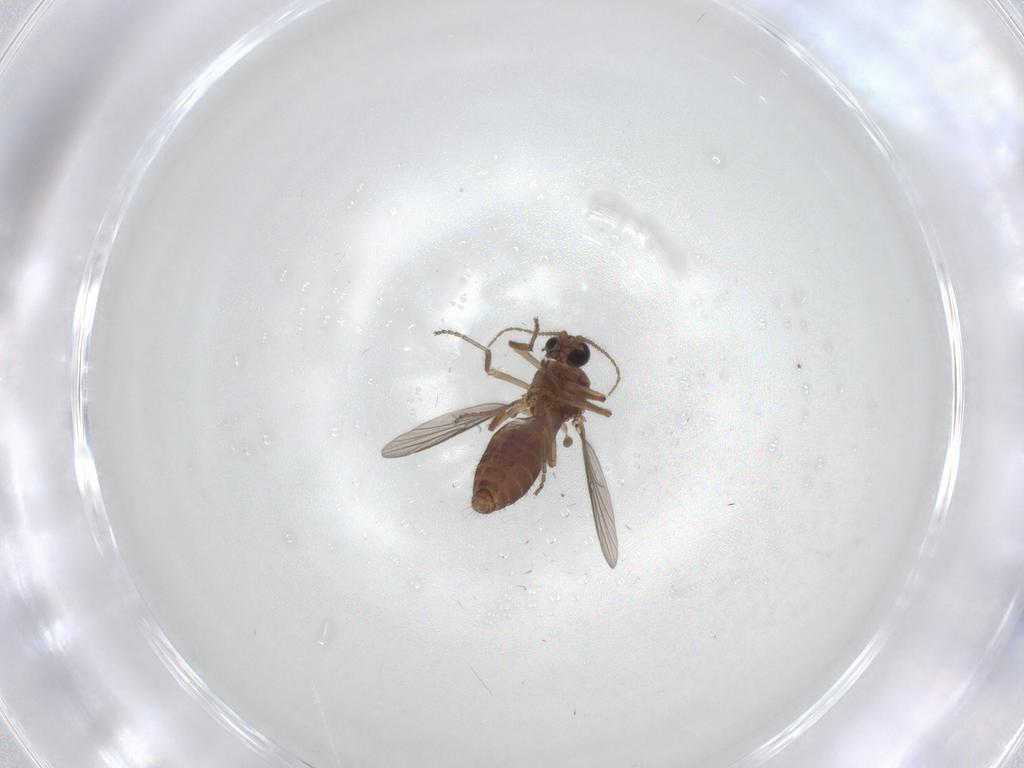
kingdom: Animalia
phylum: Arthropoda
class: Insecta
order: Diptera
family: Ceratopogonidae
